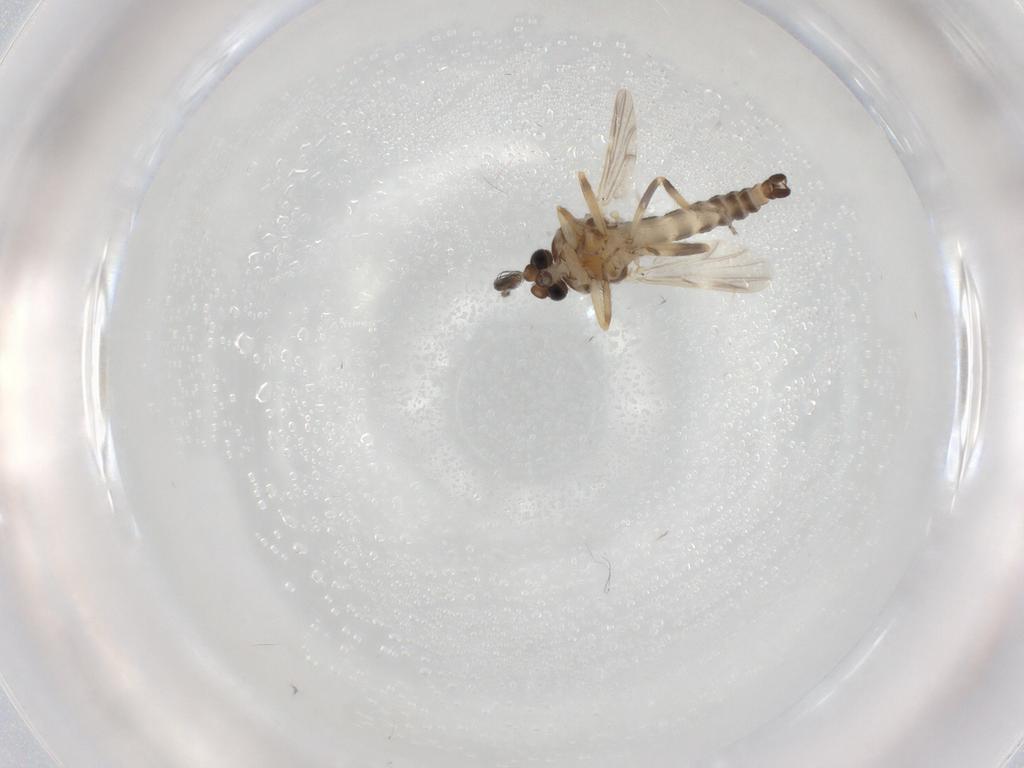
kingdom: Animalia
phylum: Arthropoda
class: Insecta
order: Diptera
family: Ceratopogonidae
